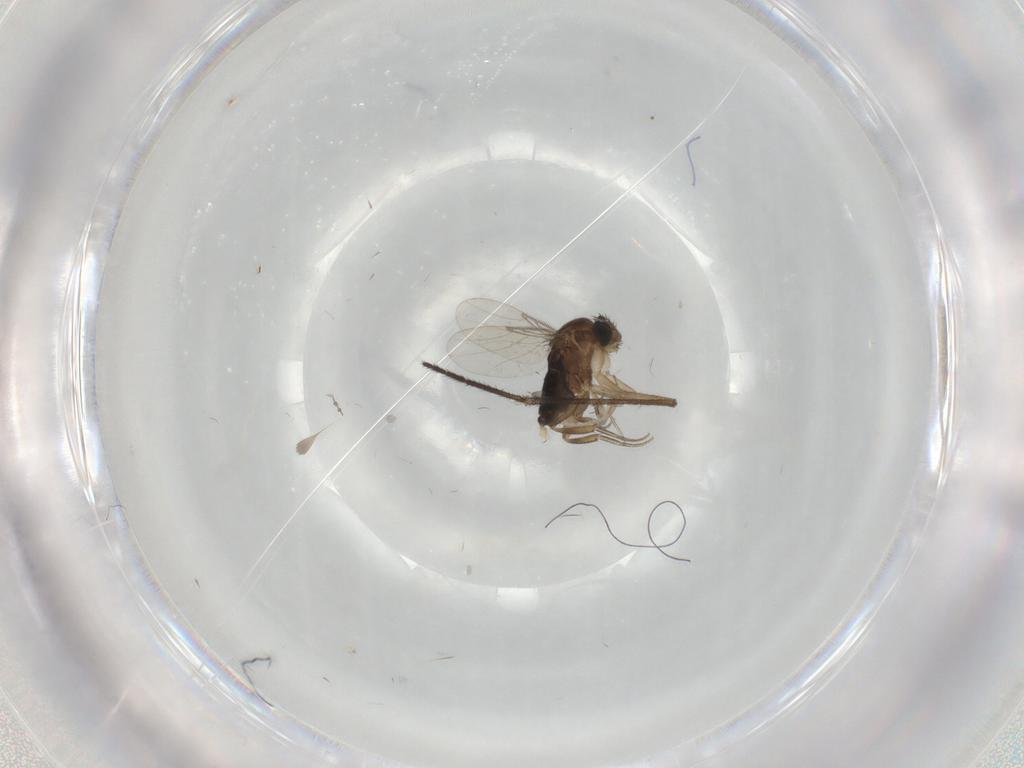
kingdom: Animalia
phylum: Arthropoda
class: Insecta
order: Diptera
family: Phoridae
